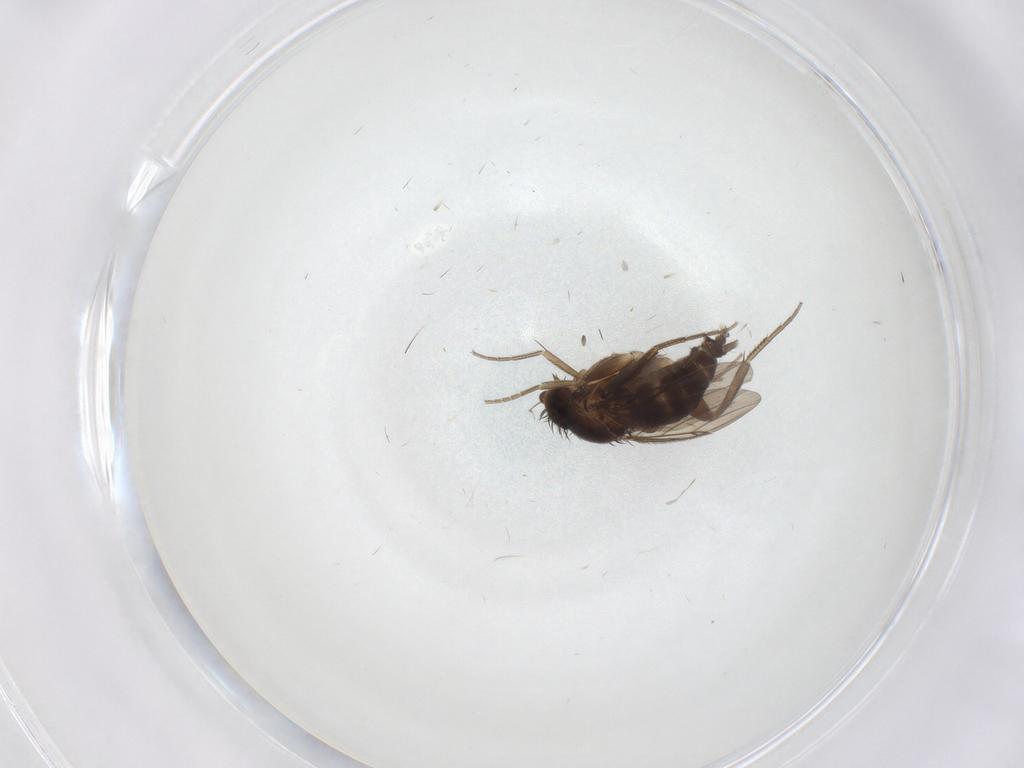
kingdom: Animalia
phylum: Arthropoda
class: Insecta
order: Diptera
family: Phoridae
